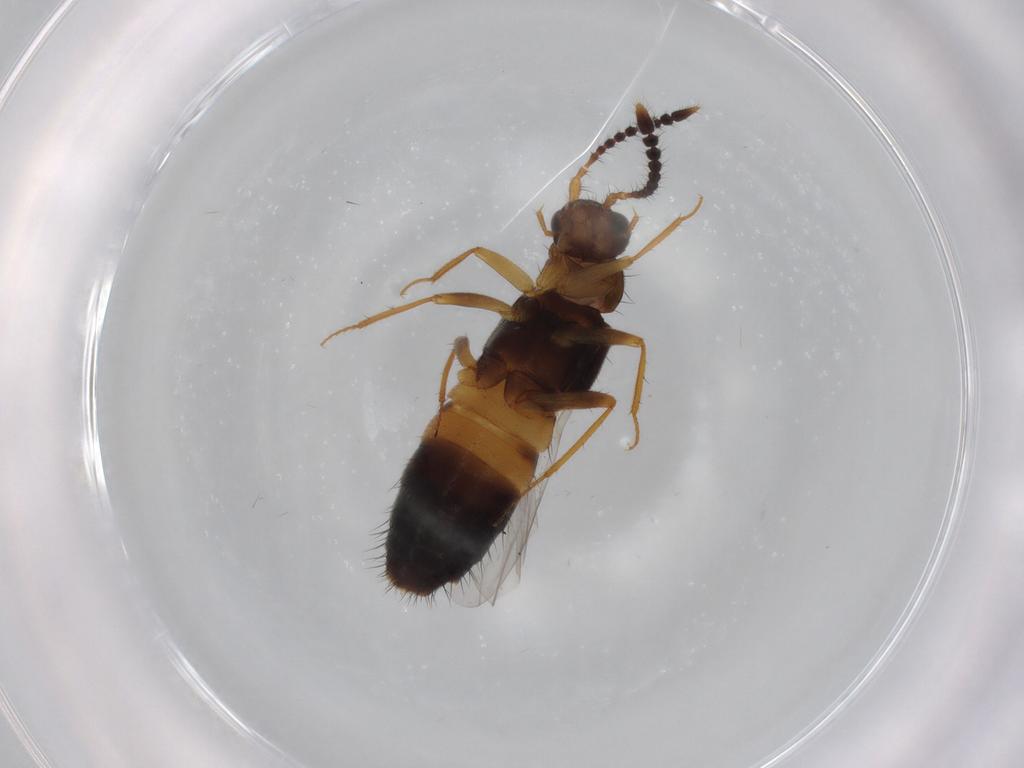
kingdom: Animalia
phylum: Arthropoda
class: Insecta
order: Coleoptera
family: Staphylinidae
